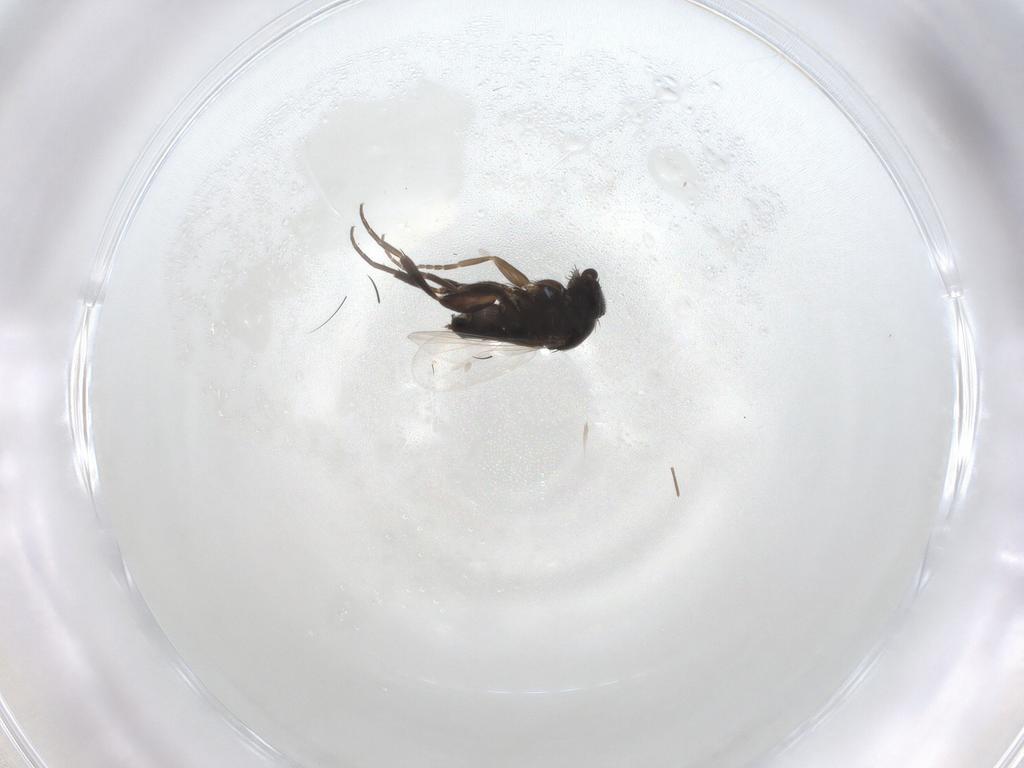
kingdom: Animalia
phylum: Arthropoda
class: Insecta
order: Diptera
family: Phoridae
